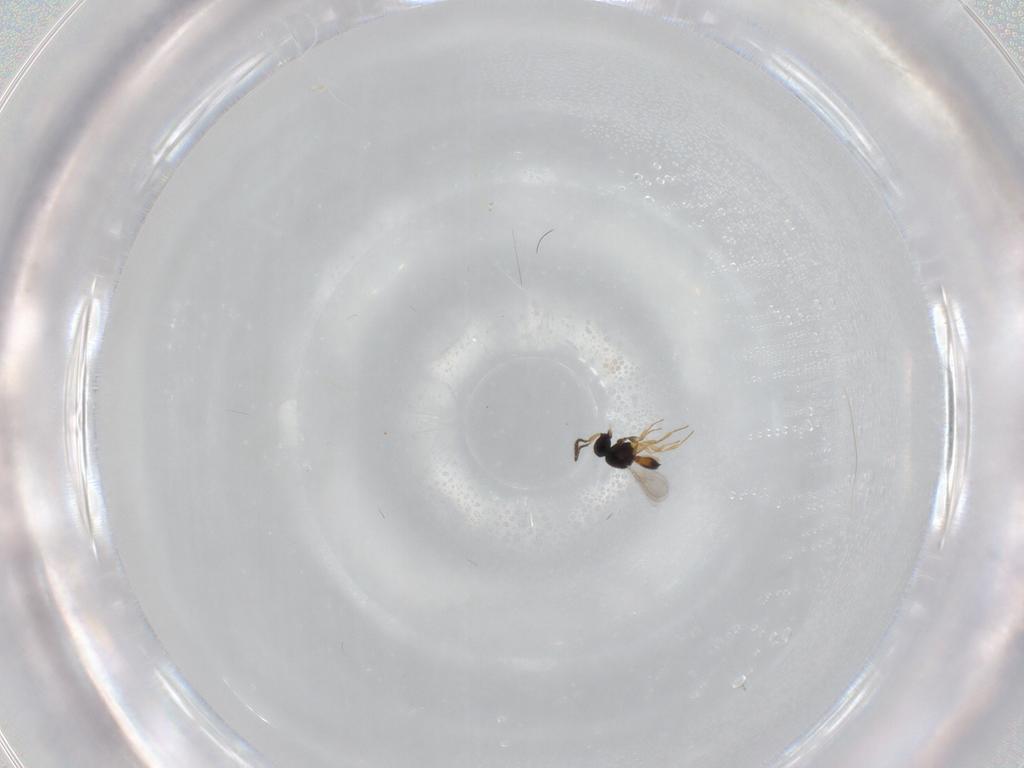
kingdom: Animalia
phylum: Arthropoda
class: Insecta
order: Hymenoptera
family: Scelionidae
